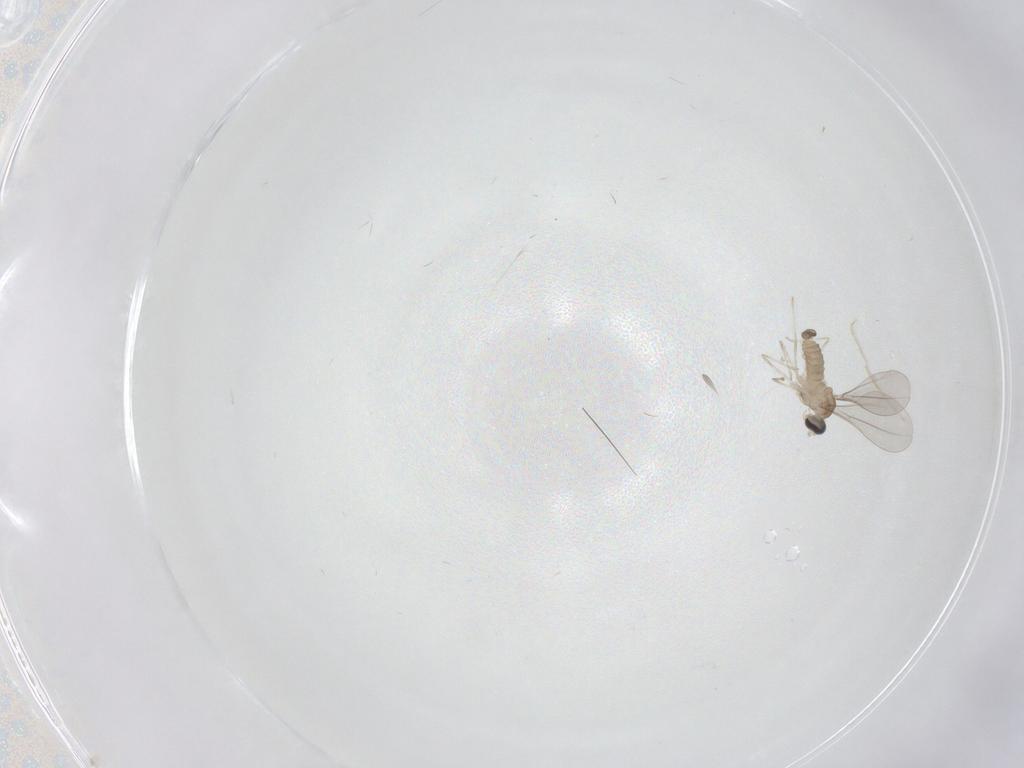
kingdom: Animalia
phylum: Arthropoda
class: Insecta
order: Diptera
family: Cecidomyiidae
